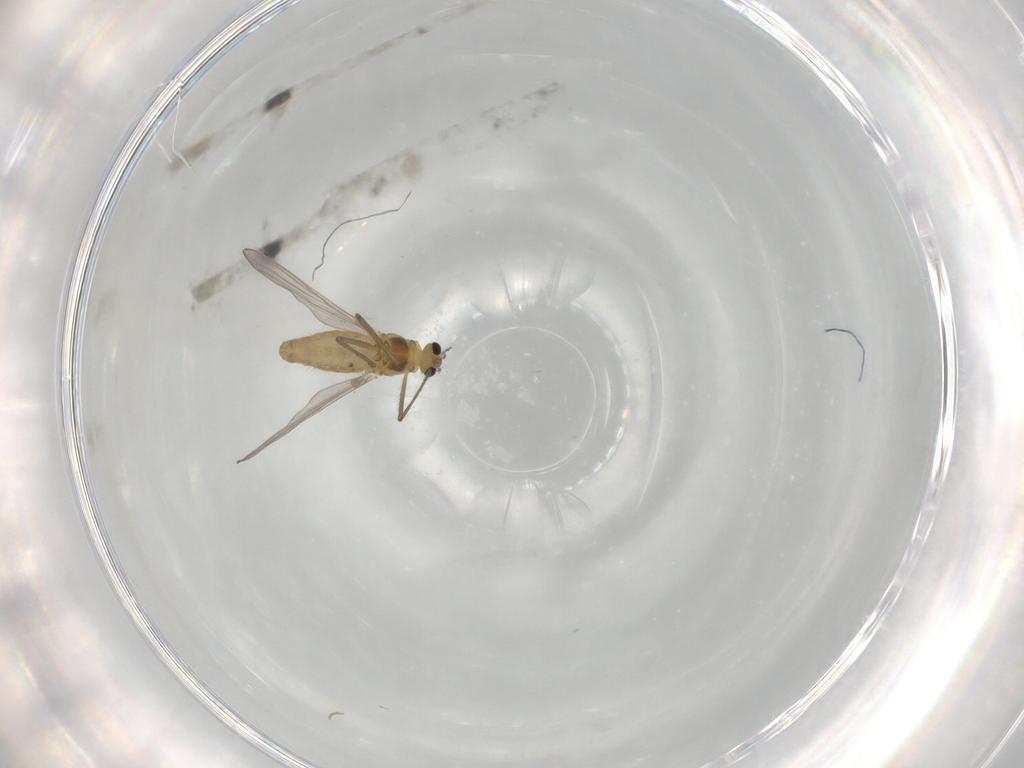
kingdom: Animalia
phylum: Arthropoda
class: Insecta
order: Diptera
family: Chironomidae
